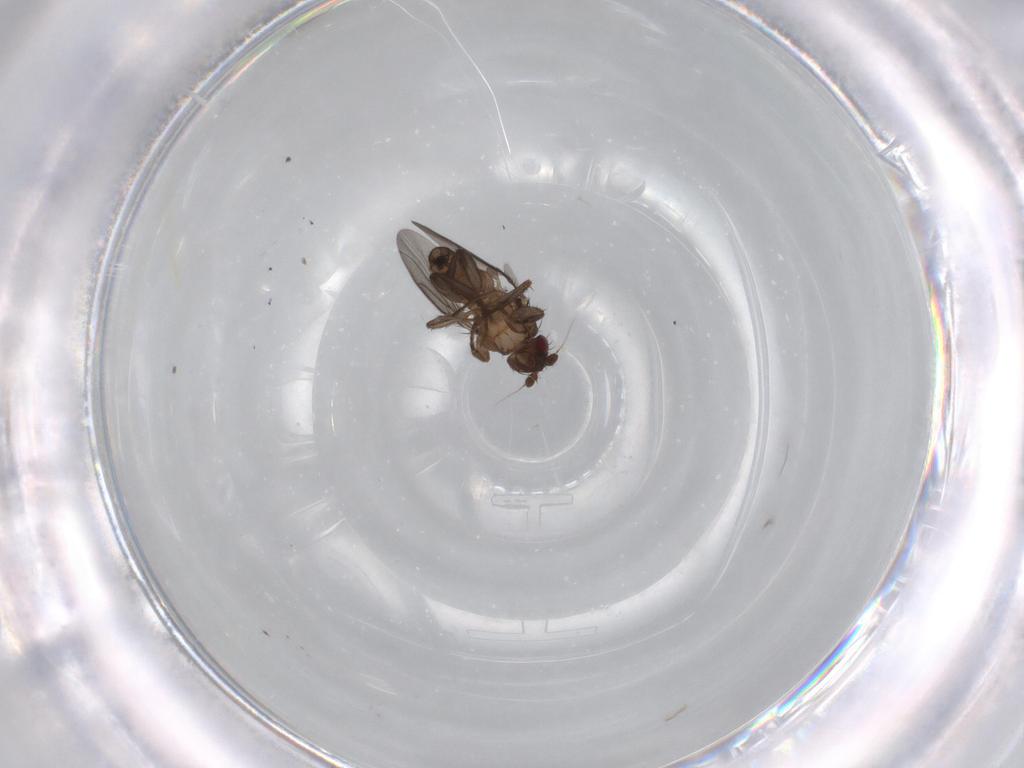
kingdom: Animalia
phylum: Arthropoda
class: Insecta
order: Diptera
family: Sphaeroceridae
